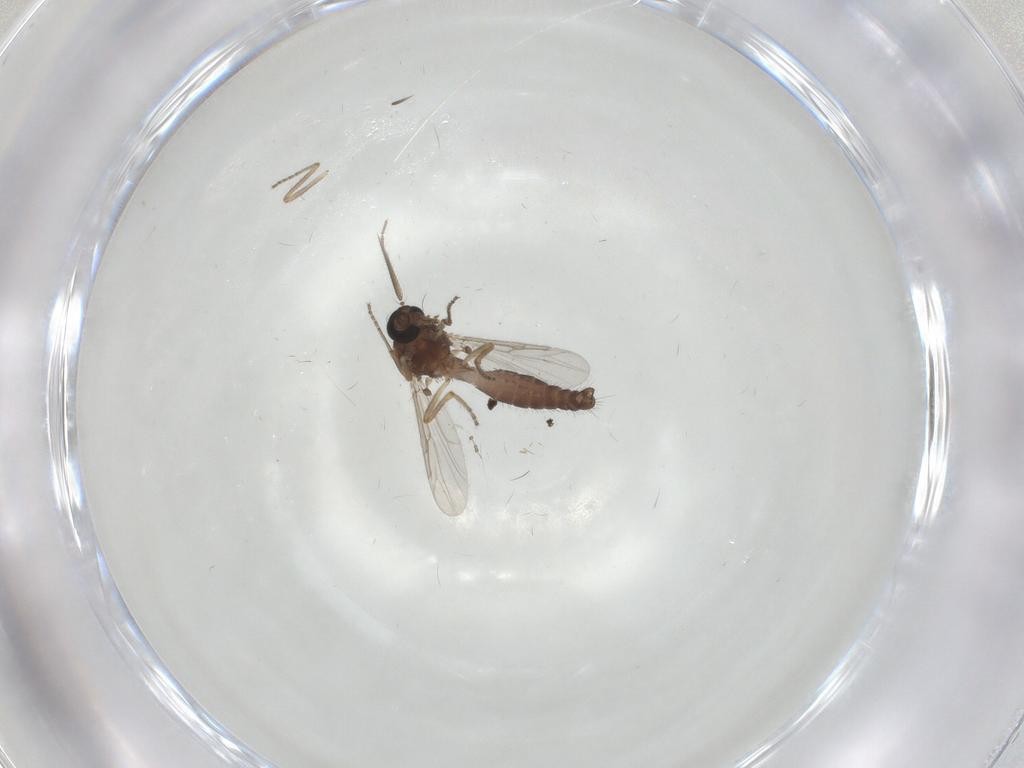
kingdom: Animalia
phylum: Arthropoda
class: Insecta
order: Diptera
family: Ceratopogonidae
